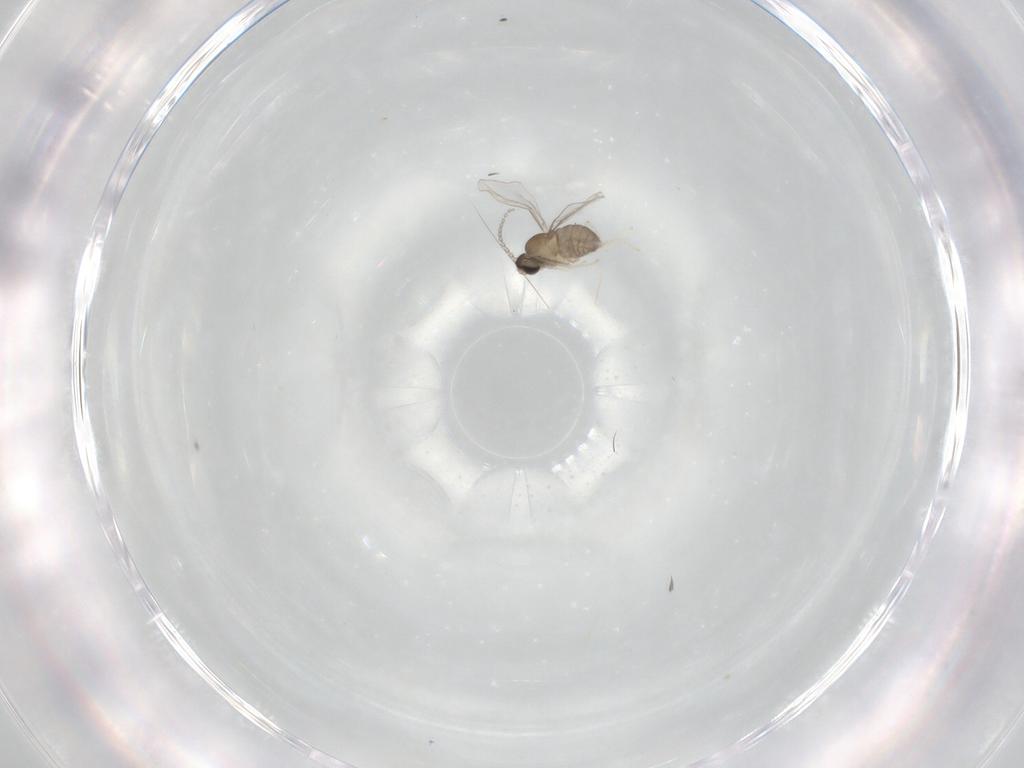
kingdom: Animalia
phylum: Arthropoda
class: Insecta
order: Diptera
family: Cecidomyiidae
